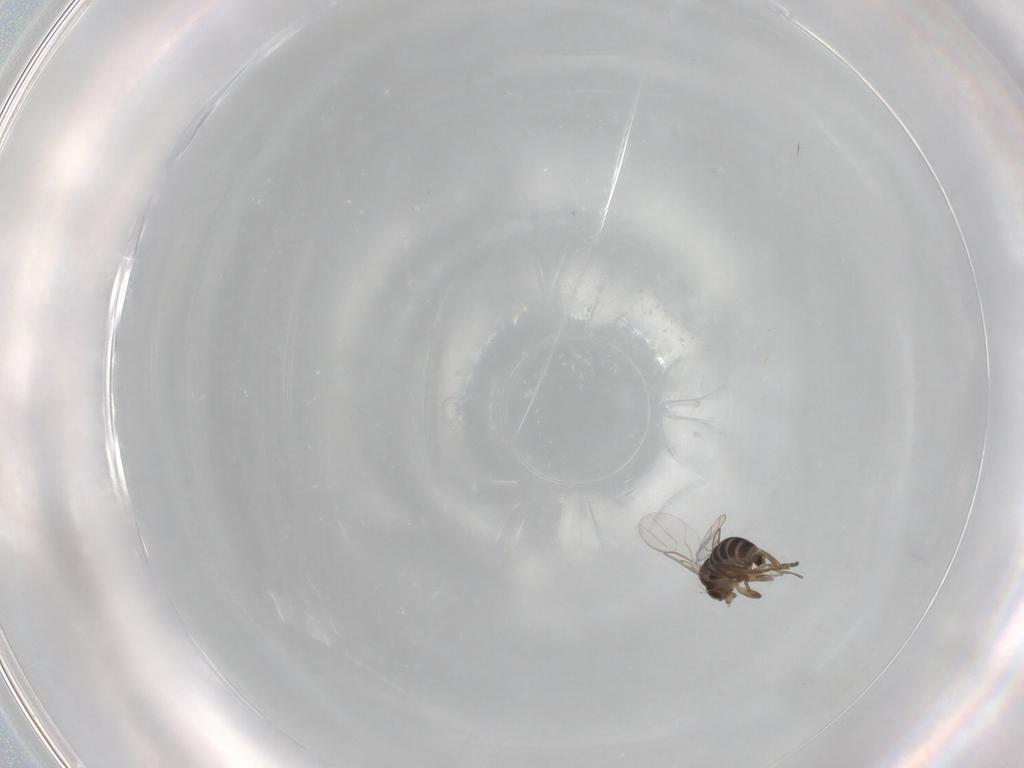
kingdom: Animalia
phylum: Arthropoda
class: Insecta
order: Diptera
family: Phoridae
